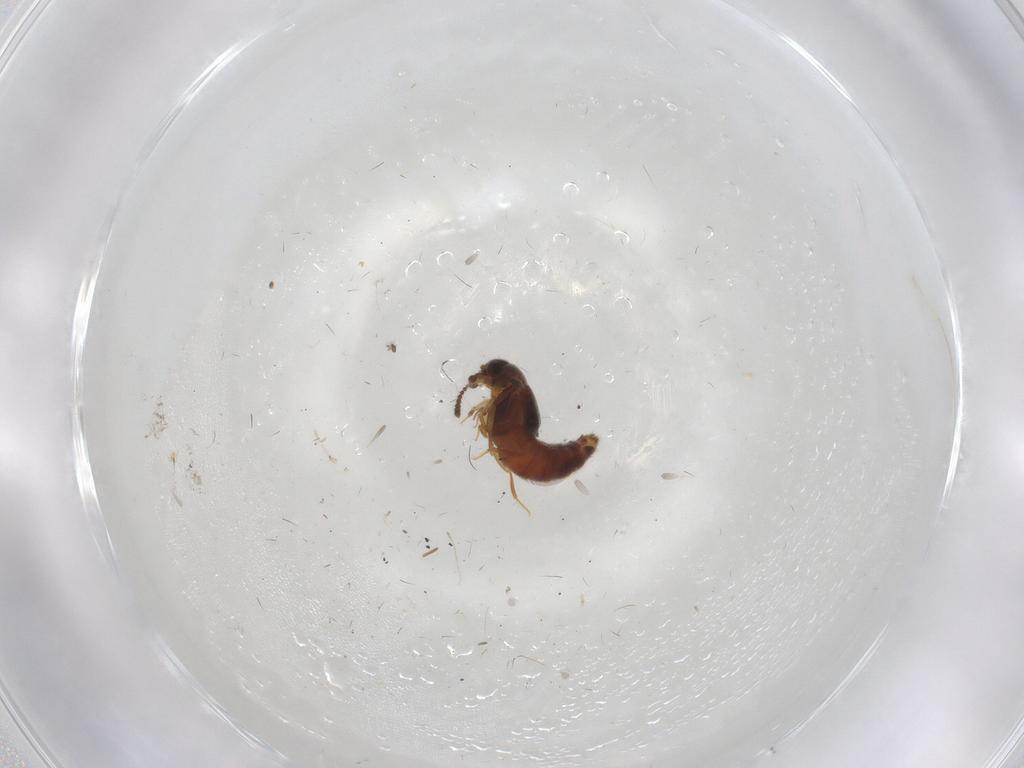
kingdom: Animalia
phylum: Arthropoda
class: Insecta
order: Coleoptera
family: Staphylinidae
